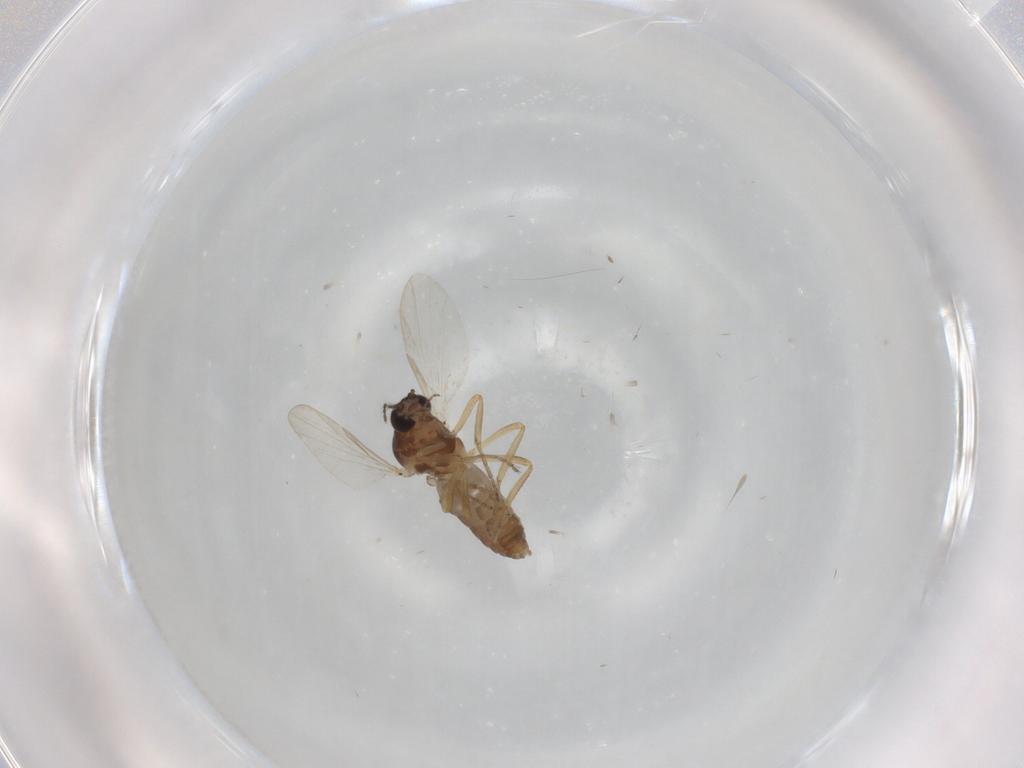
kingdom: Animalia
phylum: Arthropoda
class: Insecta
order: Diptera
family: Ceratopogonidae
